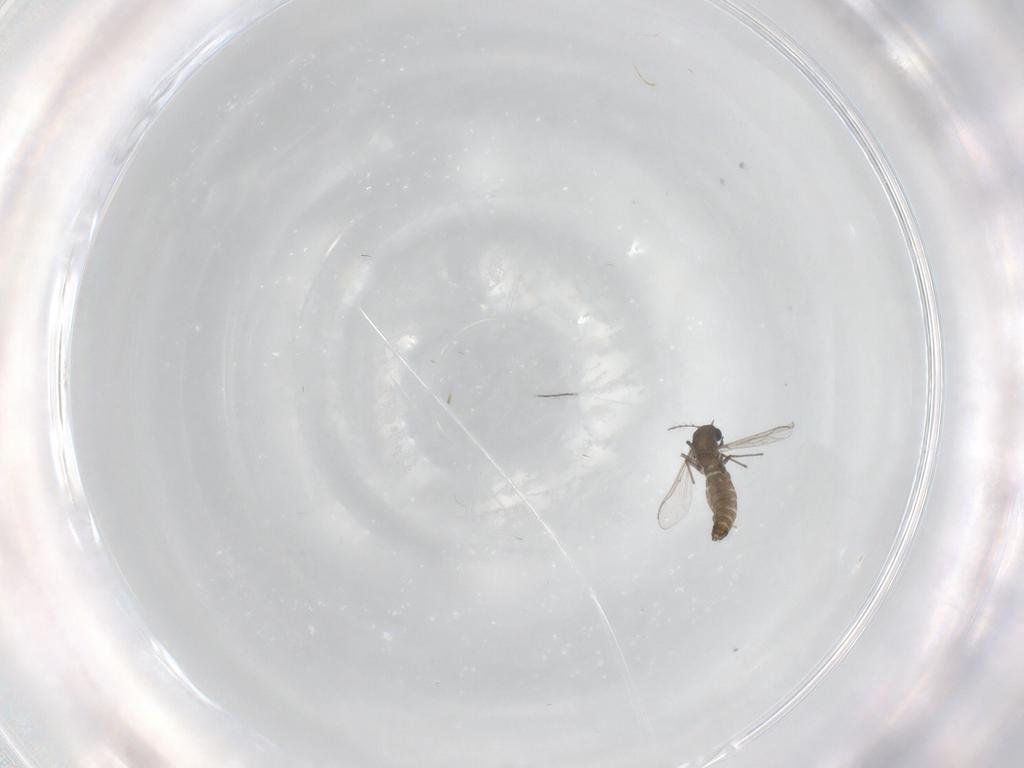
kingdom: Animalia
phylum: Arthropoda
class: Insecta
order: Diptera
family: Chironomidae
